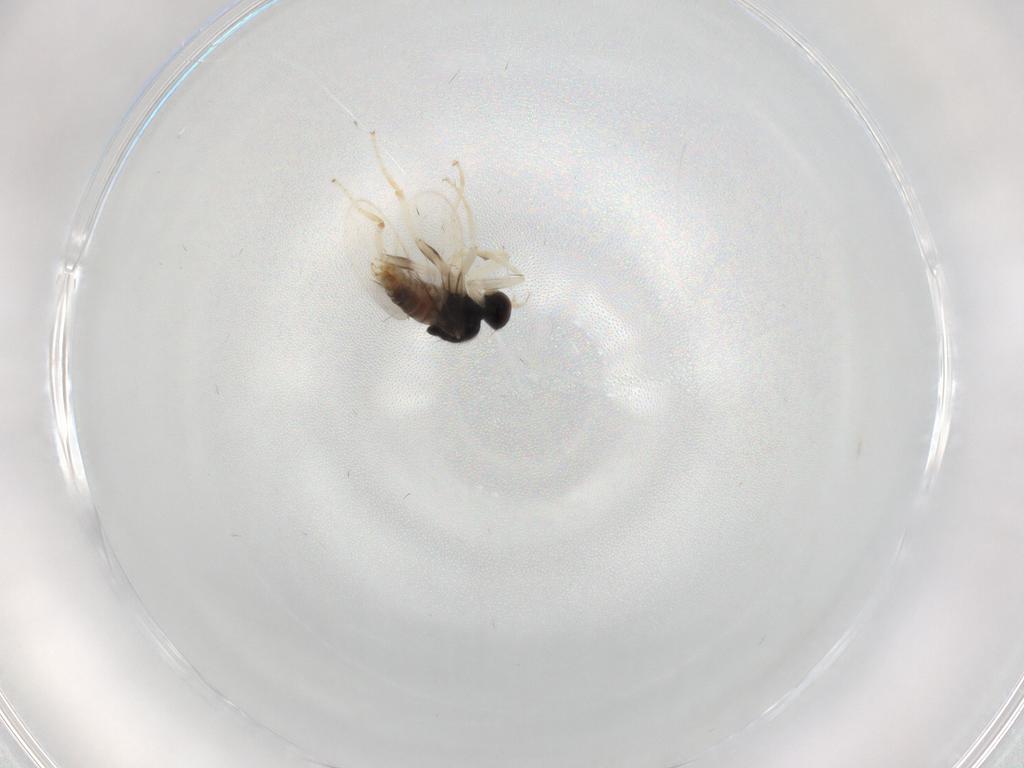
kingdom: Animalia
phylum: Arthropoda
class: Insecta
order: Diptera
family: Hybotidae
